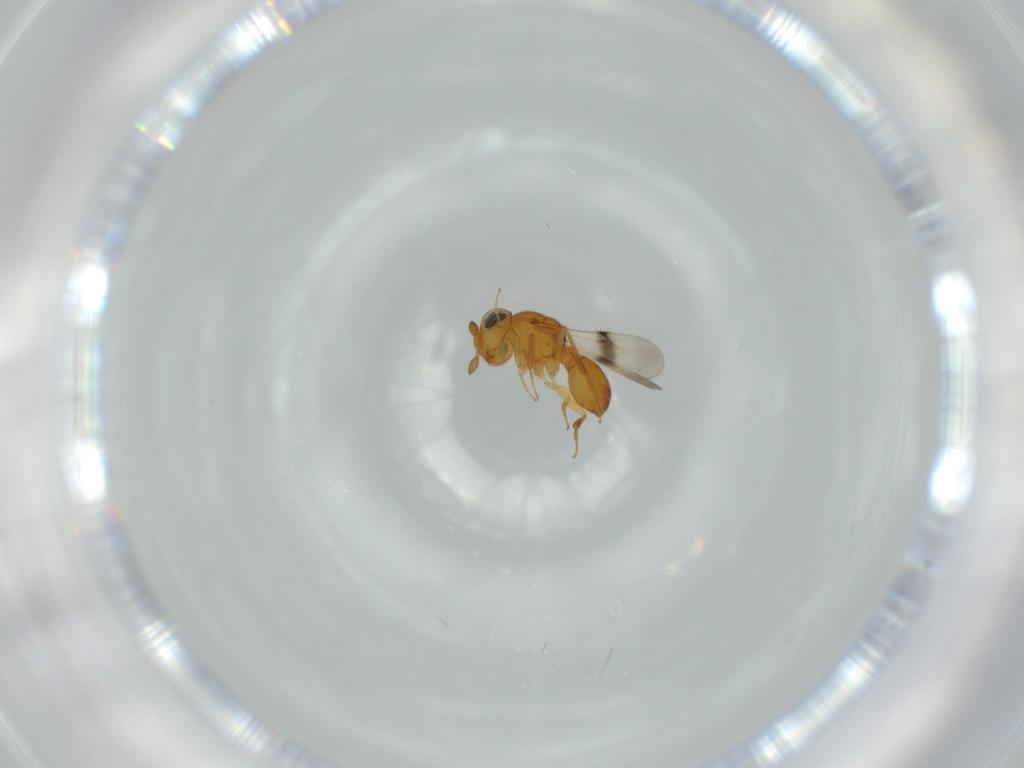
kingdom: Animalia
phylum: Arthropoda
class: Insecta
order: Hymenoptera
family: Scelionidae
